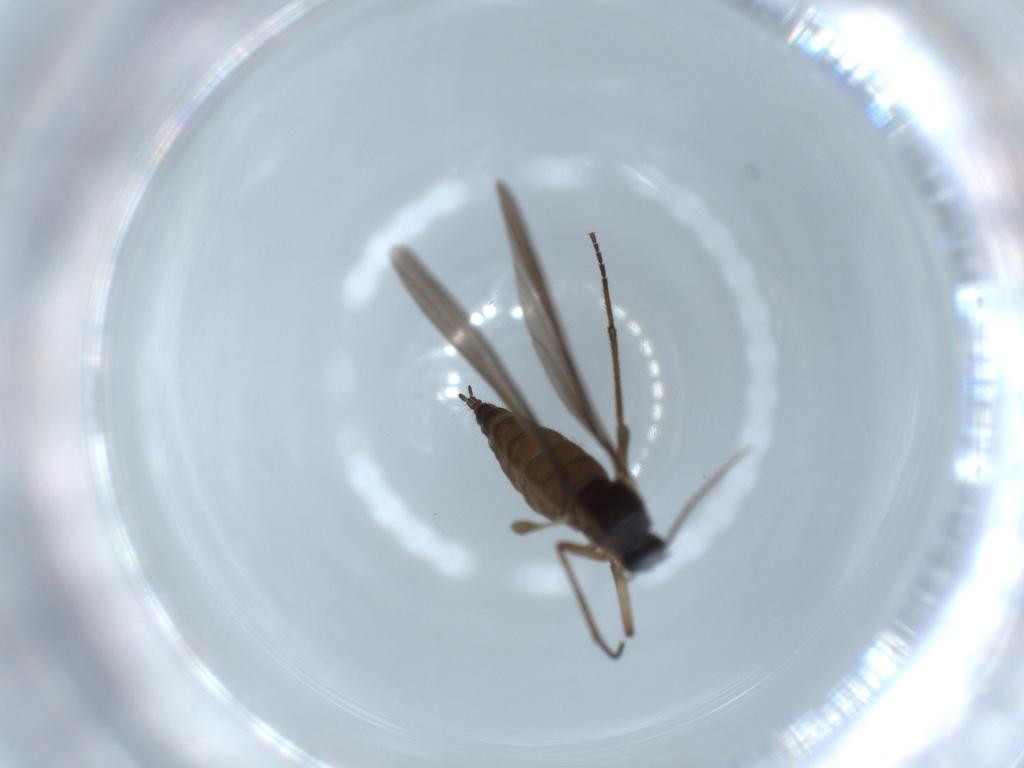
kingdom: Animalia
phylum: Arthropoda
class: Insecta
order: Diptera
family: Sciaridae
